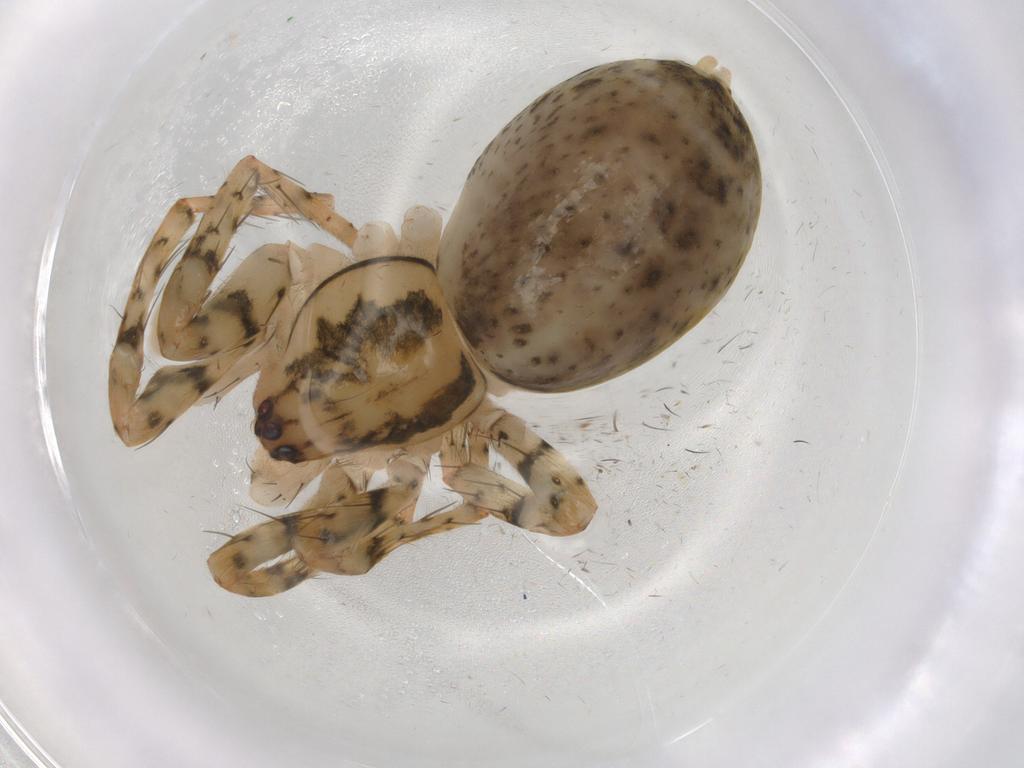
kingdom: Animalia
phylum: Arthropoda
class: Arachnida
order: Araneae
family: Anyphaenidae
